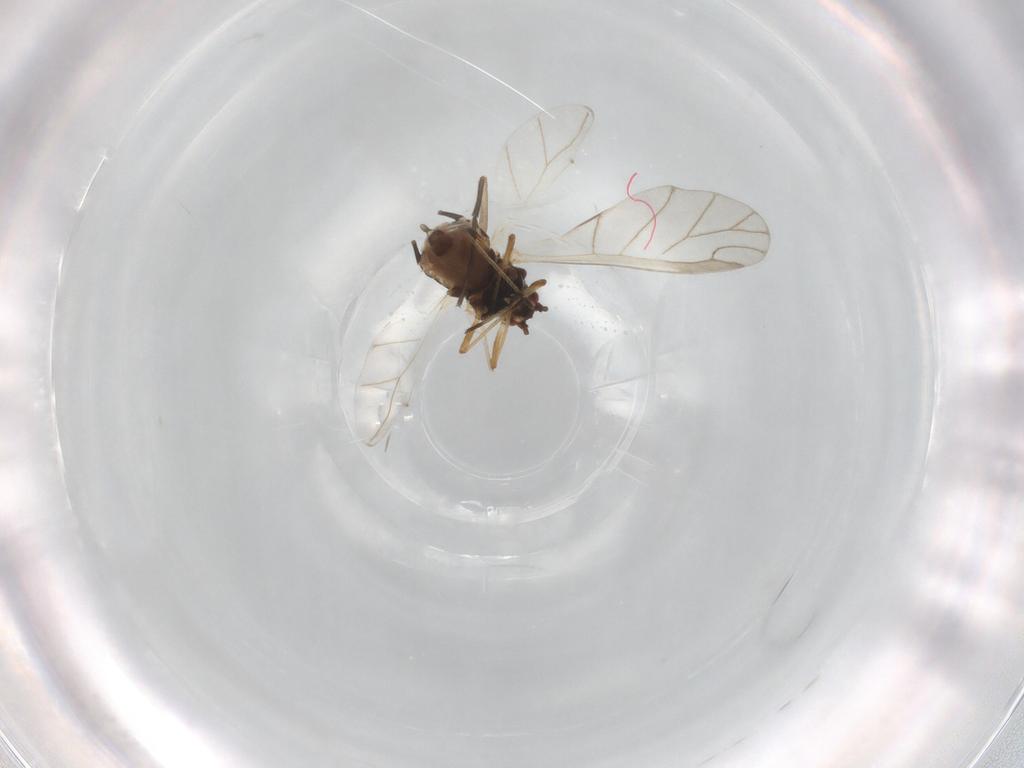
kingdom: Animalia
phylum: Arthropoda
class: Insecta
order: Hemiptera
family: Aphididae
